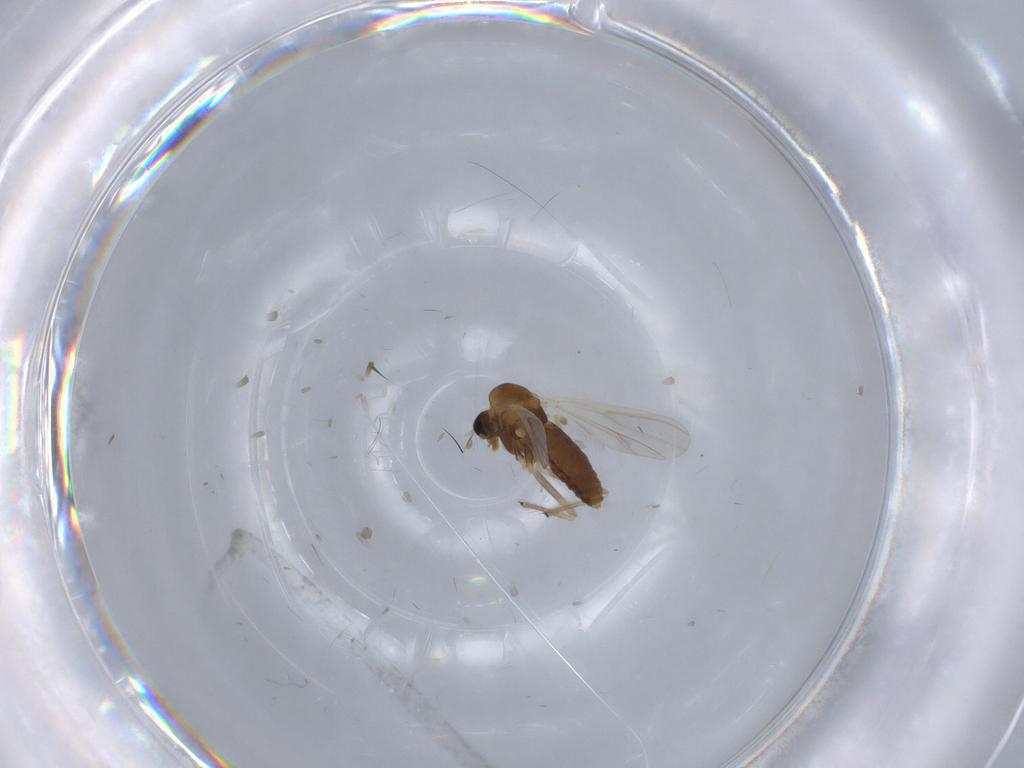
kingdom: Animalia
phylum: Arthropoda
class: Insecta
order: Diptera
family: Chironomidae
